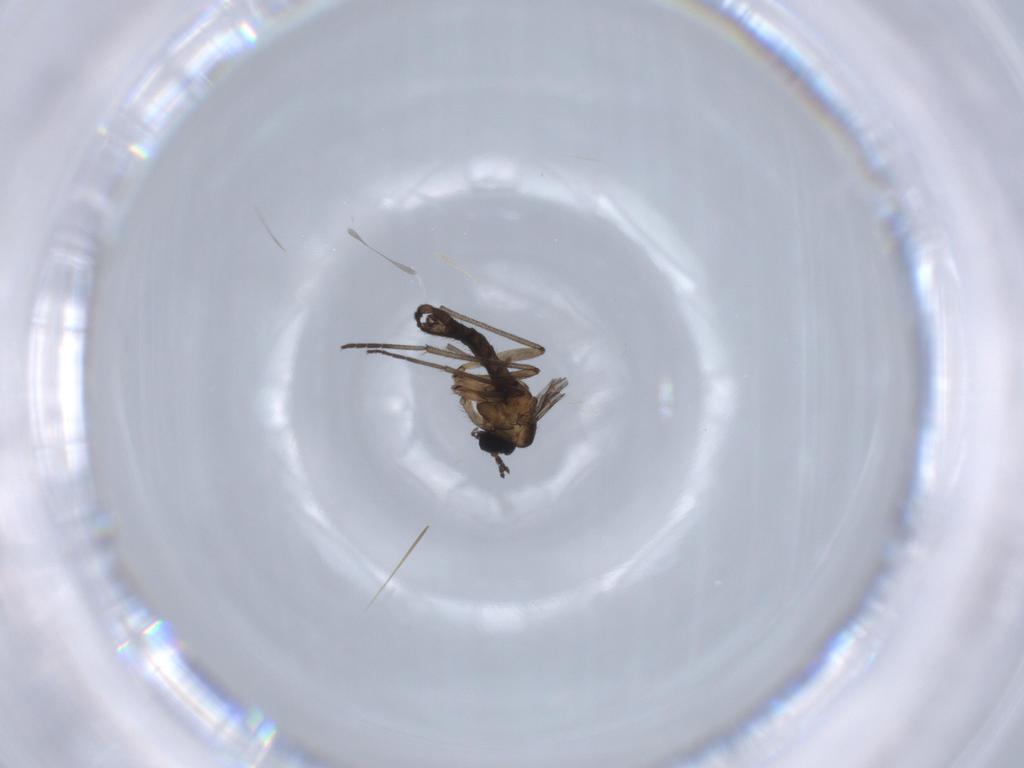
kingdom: Animalia
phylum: Arthropoda
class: Insecta
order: Diptera
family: Sciaridae
